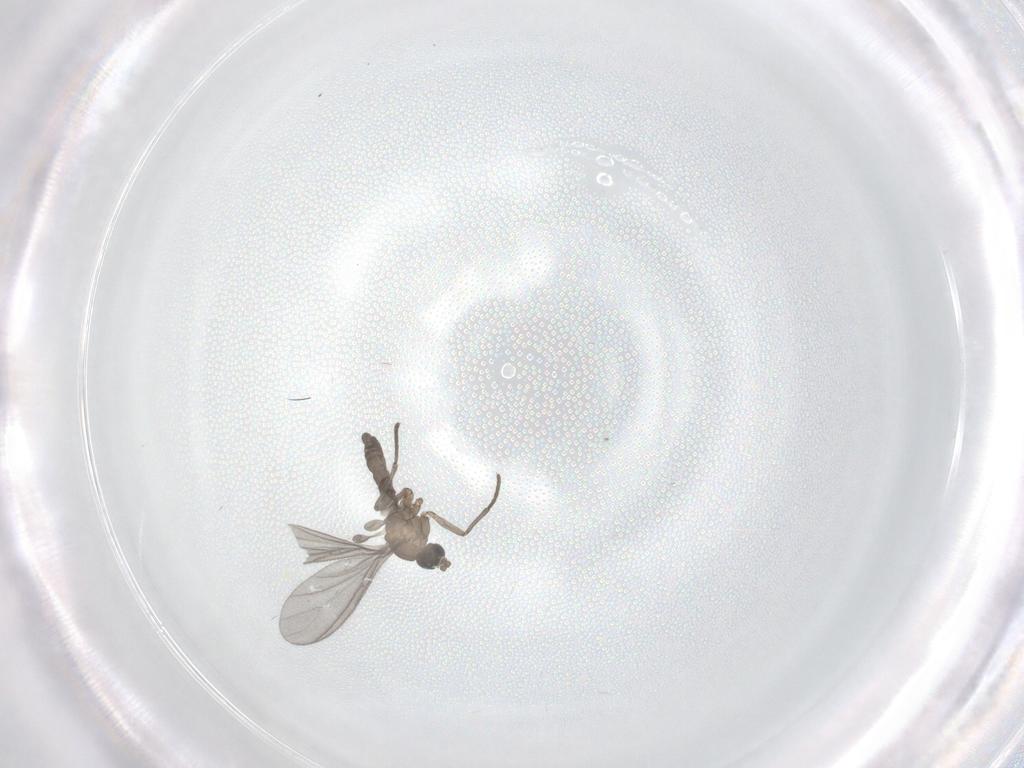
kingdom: Animalia
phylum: Arthropoda
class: Insecta
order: Diptera
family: Sciaridae
